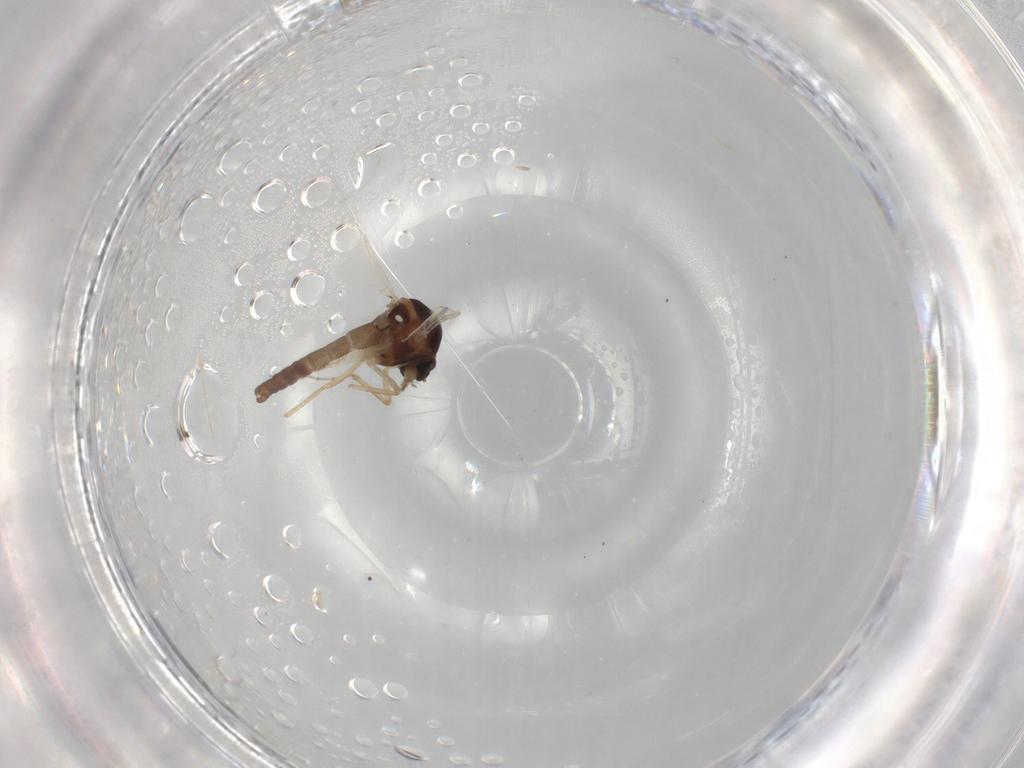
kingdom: Animalia
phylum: Arthropoda
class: Insecta
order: Diptera
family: Ceratopogonidae
